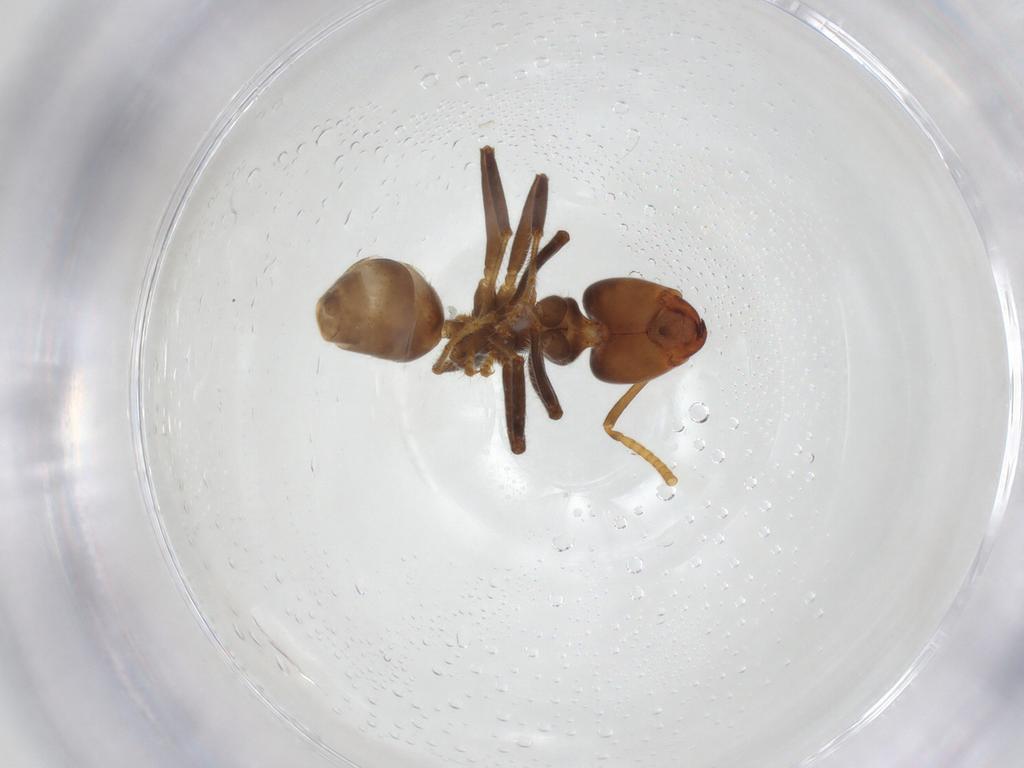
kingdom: Animalia
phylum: Arthropoda
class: Insecta
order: Hymenoptera
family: Formicidae
